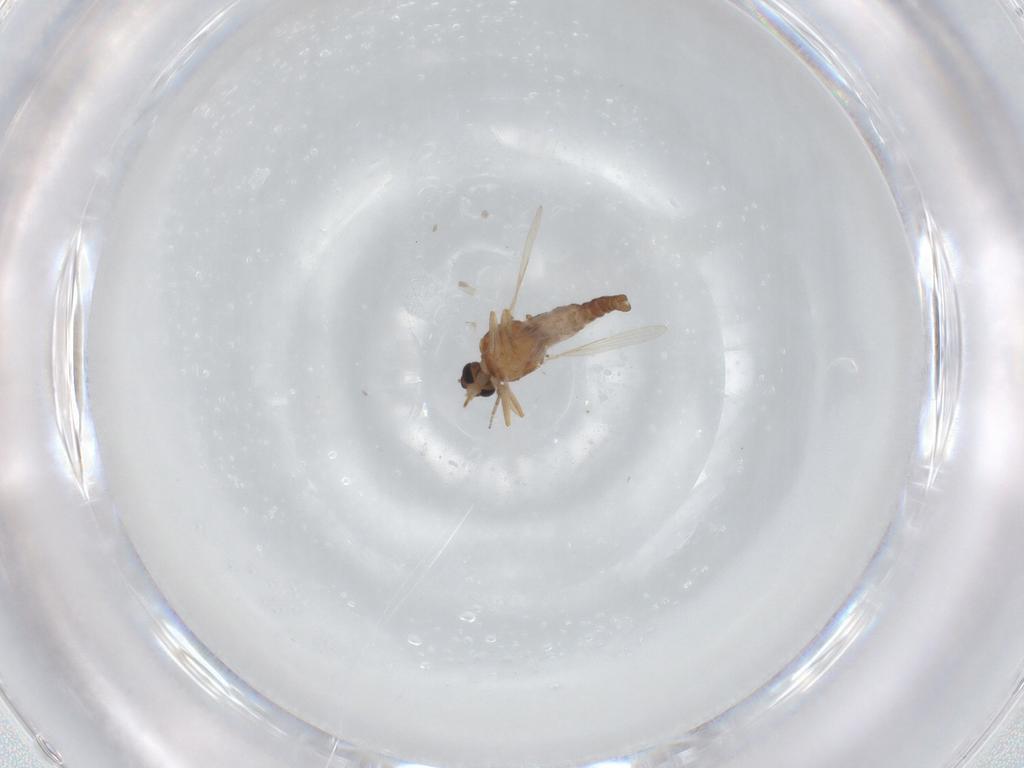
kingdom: Animalia
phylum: Arthropoda
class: Insecta
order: Diptera
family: Ceratopogonidae
